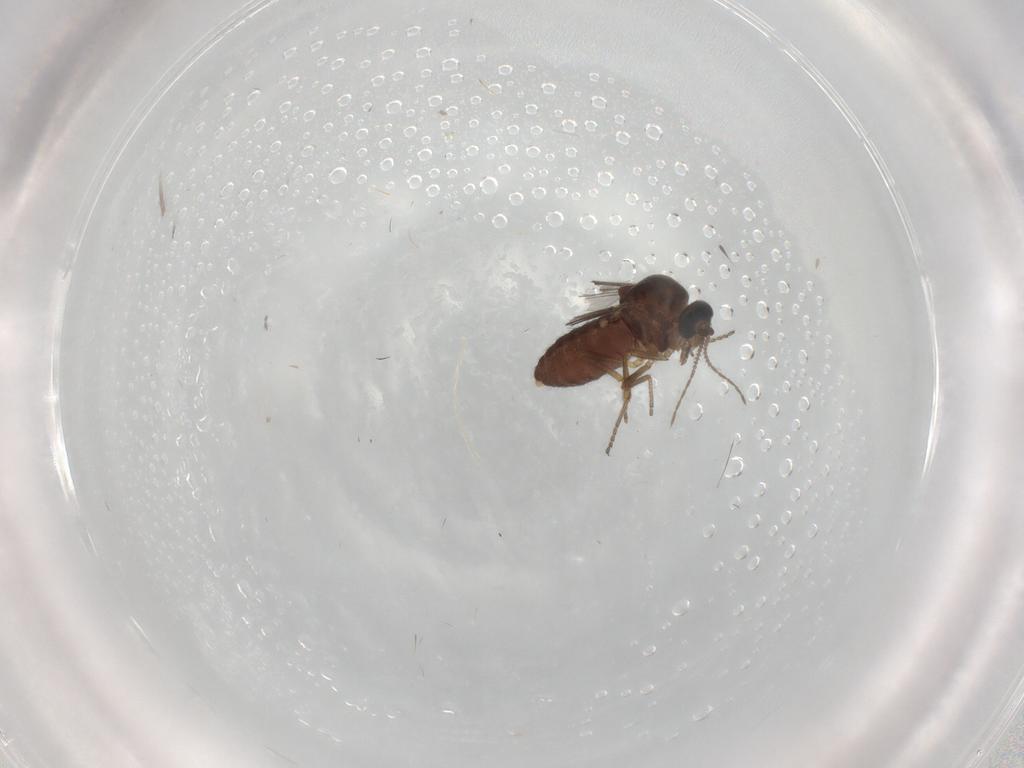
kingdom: Animalia
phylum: Arthropoda
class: Insecta
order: Diptera
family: Ceratopogonidae
